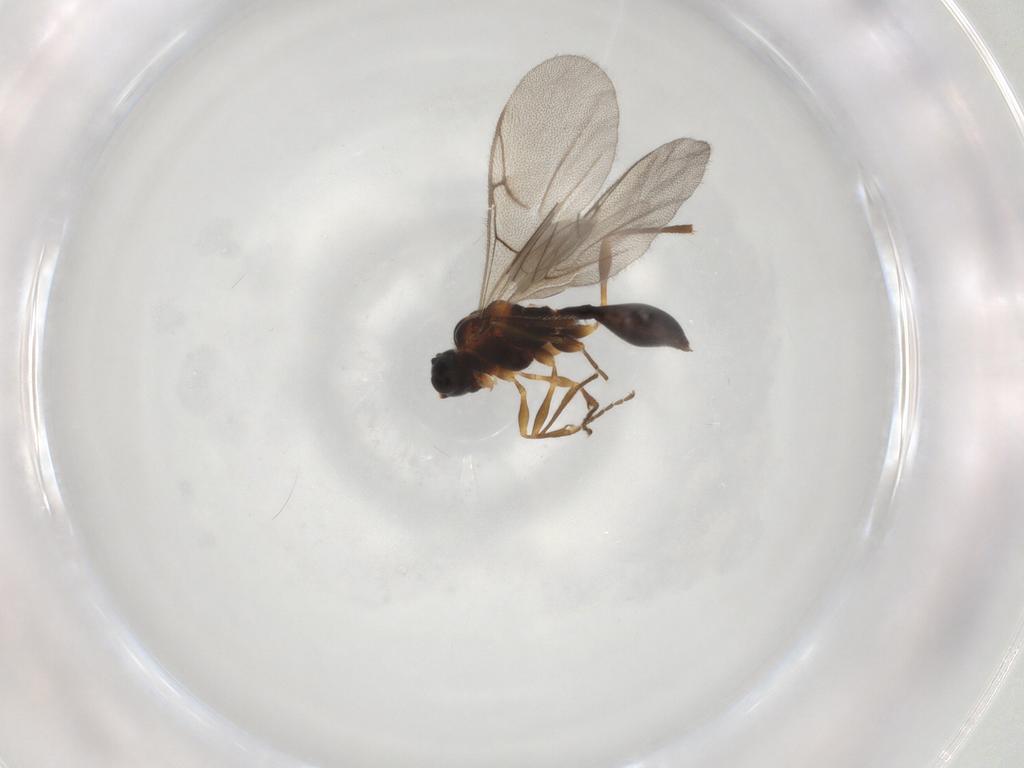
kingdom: Animalia
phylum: Arthropoda
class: Insecta
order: Hymenoptera
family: Diapriidae
